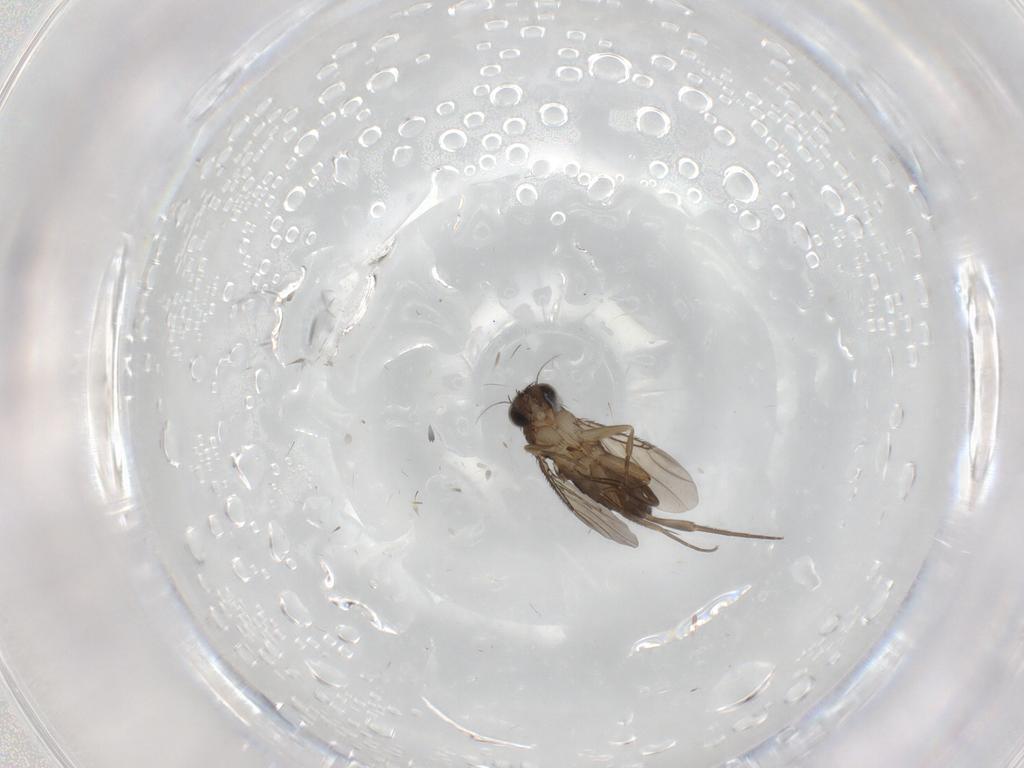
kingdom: Animalia
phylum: Arthropoda
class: Insecta
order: Diptera
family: Phoridae
